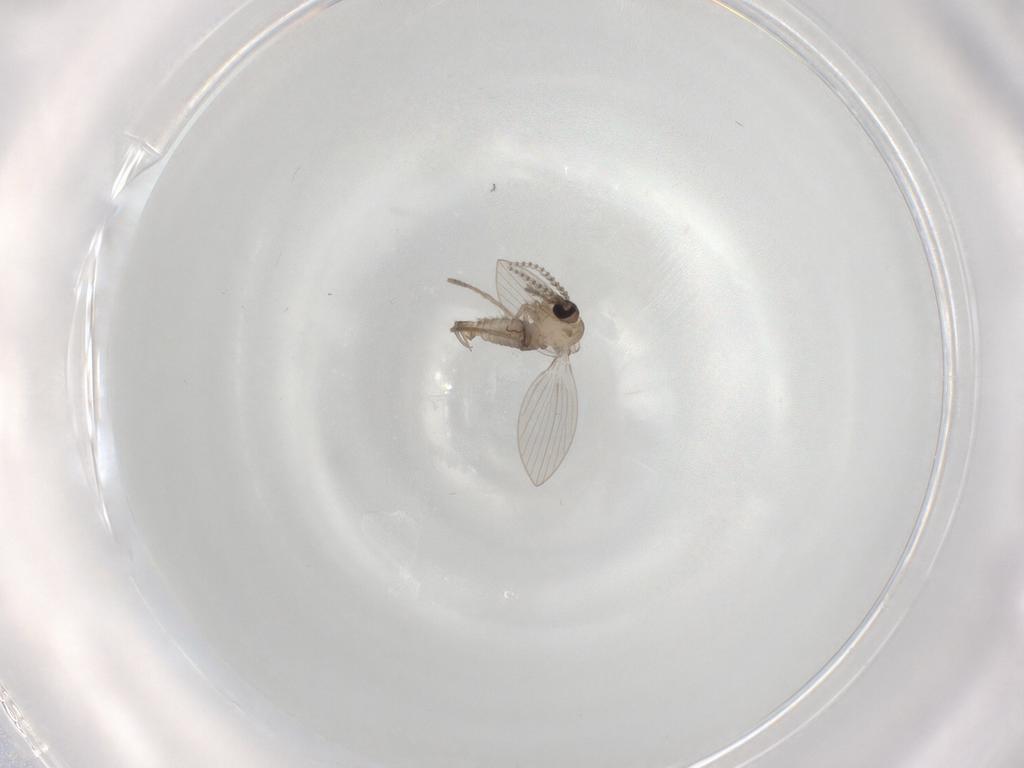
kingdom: Animalia
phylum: Arthropoda
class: Insecta
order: Diptera
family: Psychodidae
